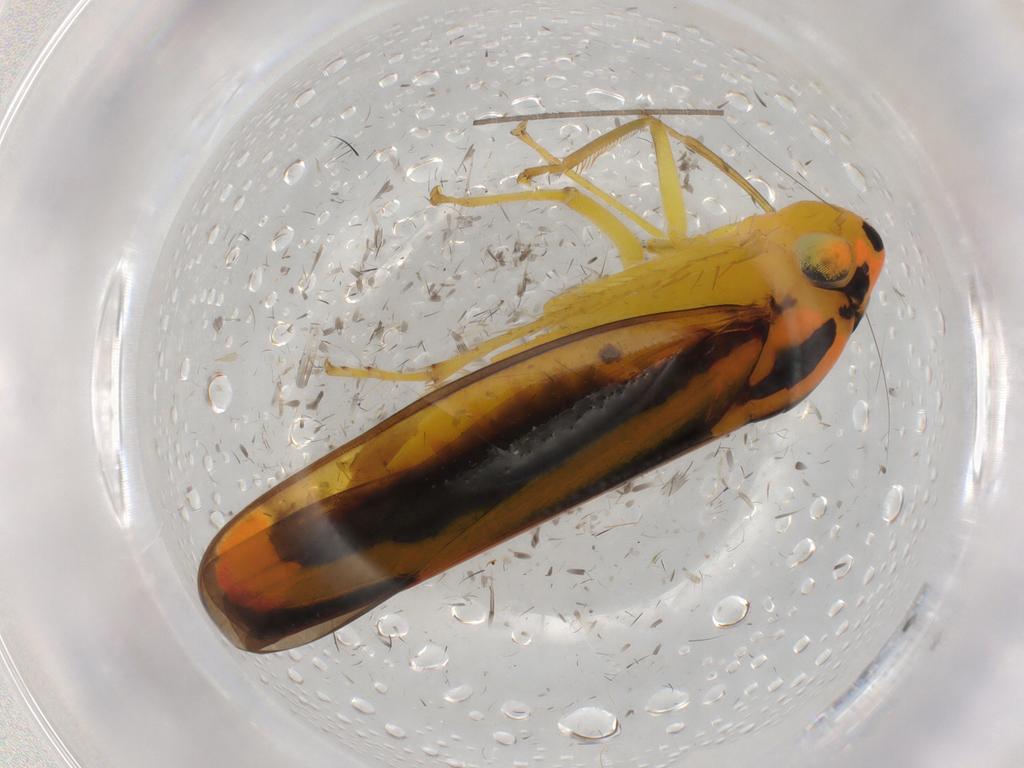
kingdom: Animalia
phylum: Arthropoda
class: Insecta
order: Hemiptera
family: Cicadellidae
